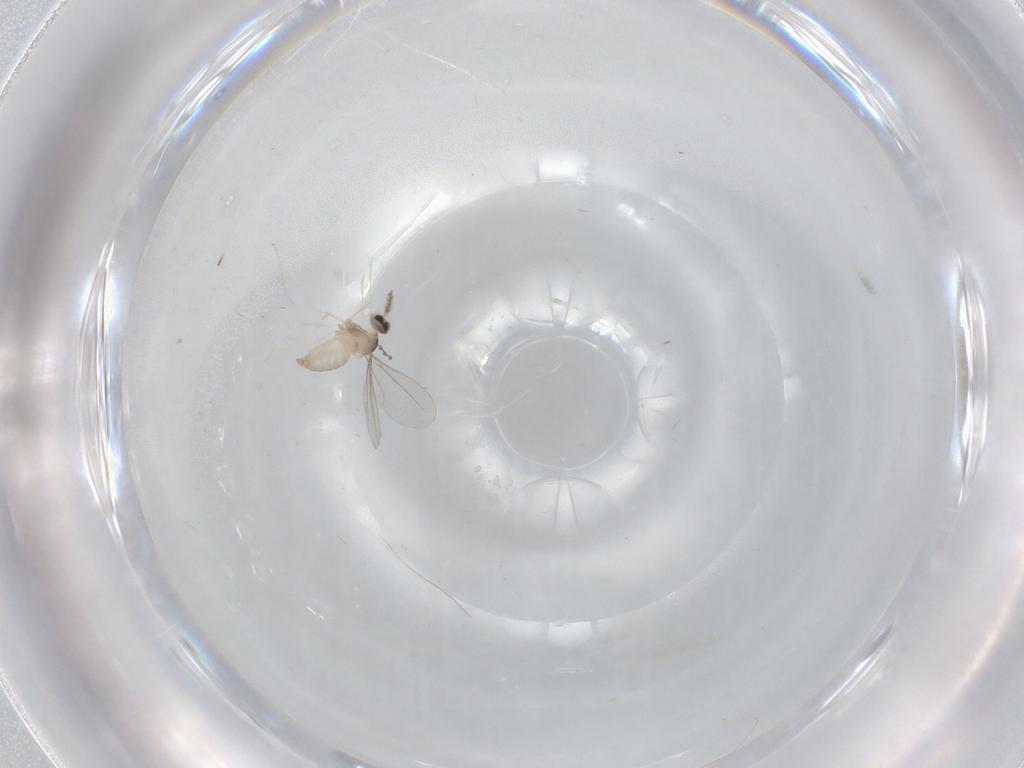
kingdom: Animalia
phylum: Arthropoda
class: Insecta
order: Diptera
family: Cecidomyiidae
